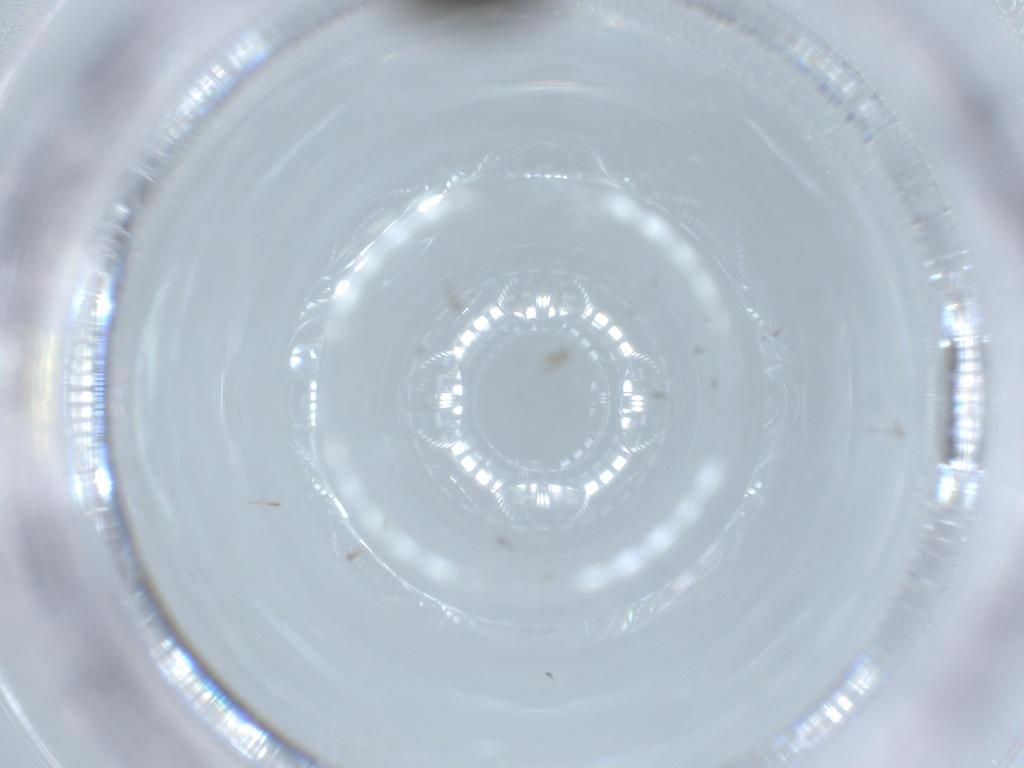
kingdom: Animalia
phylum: Arthropoda
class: Insecta
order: Coleoptera
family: Chrysomelidae
